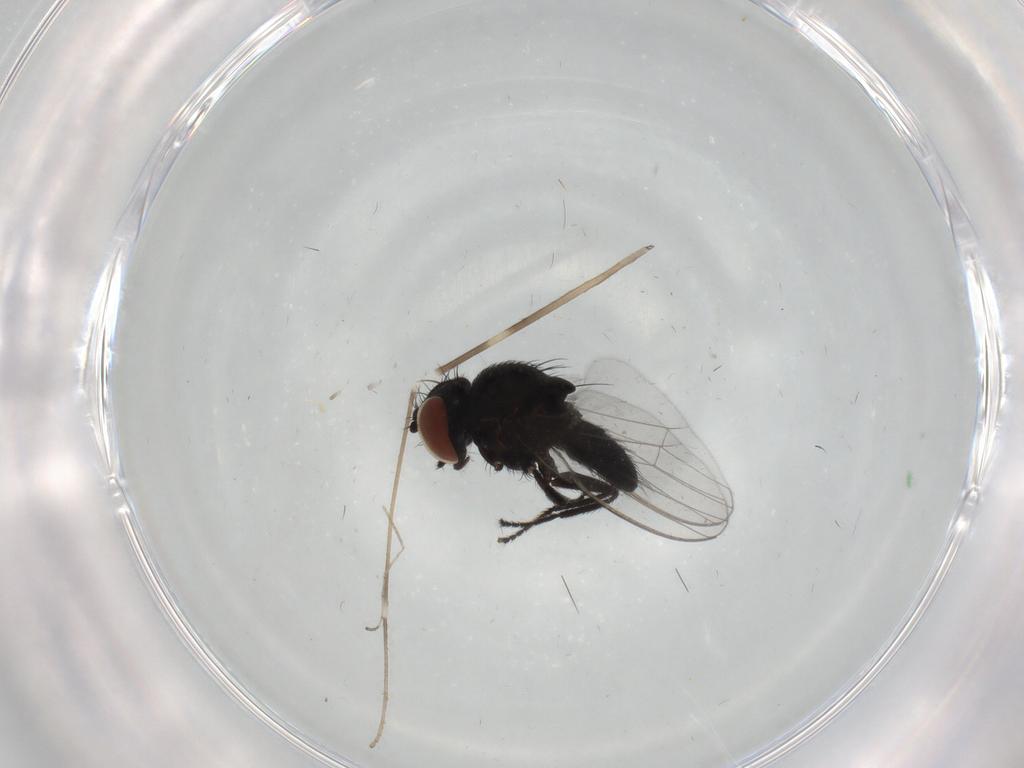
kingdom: Animalia
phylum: Arthropoda
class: Insecta
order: Diptera
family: Milichiidae
